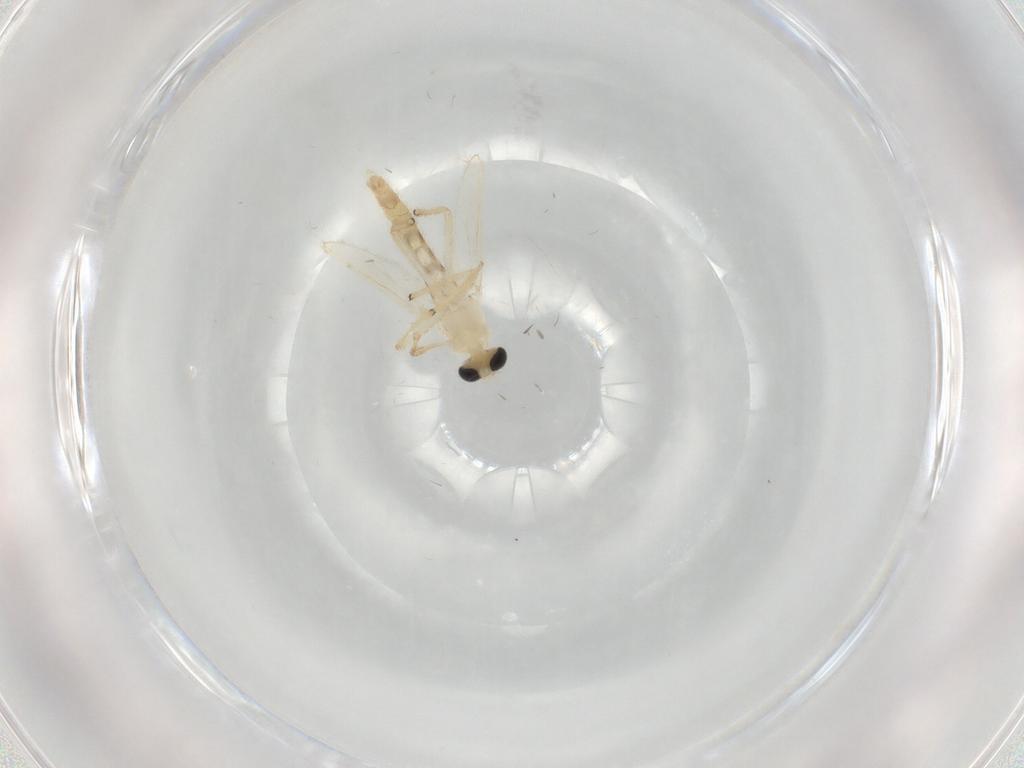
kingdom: Animalia
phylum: Arthropoda
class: Insecta
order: Diptera
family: Chironomidae
